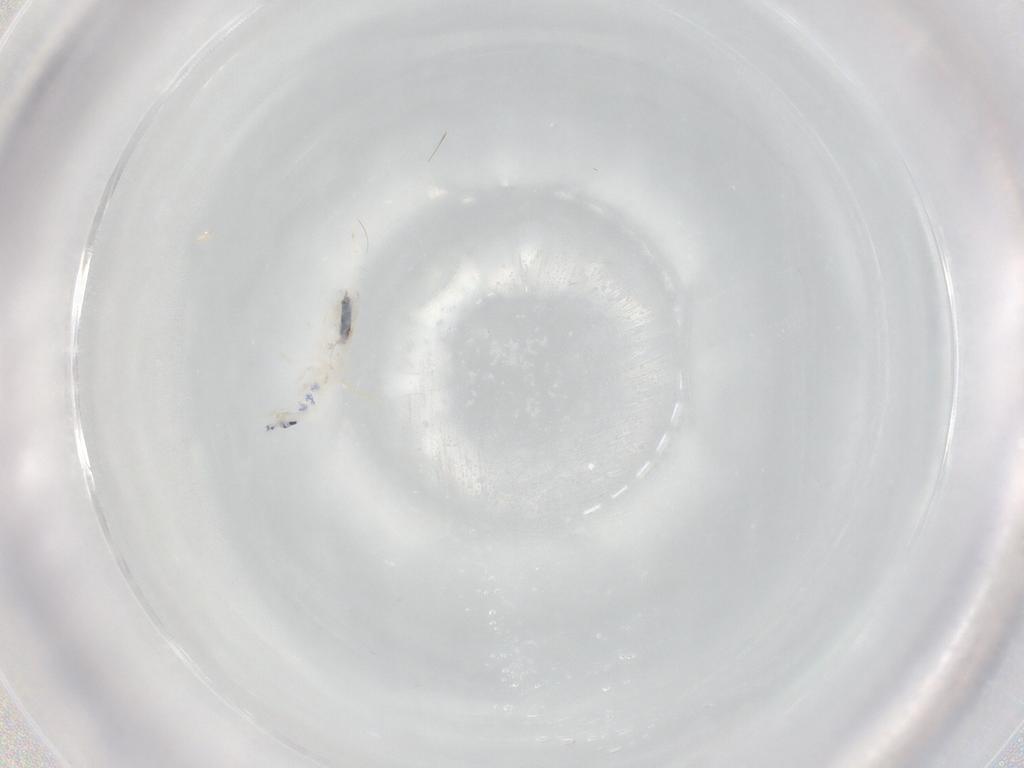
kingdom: Animalia
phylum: Arthropoda
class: Collembola
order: Entomobryomorpha
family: Entomobryidae
